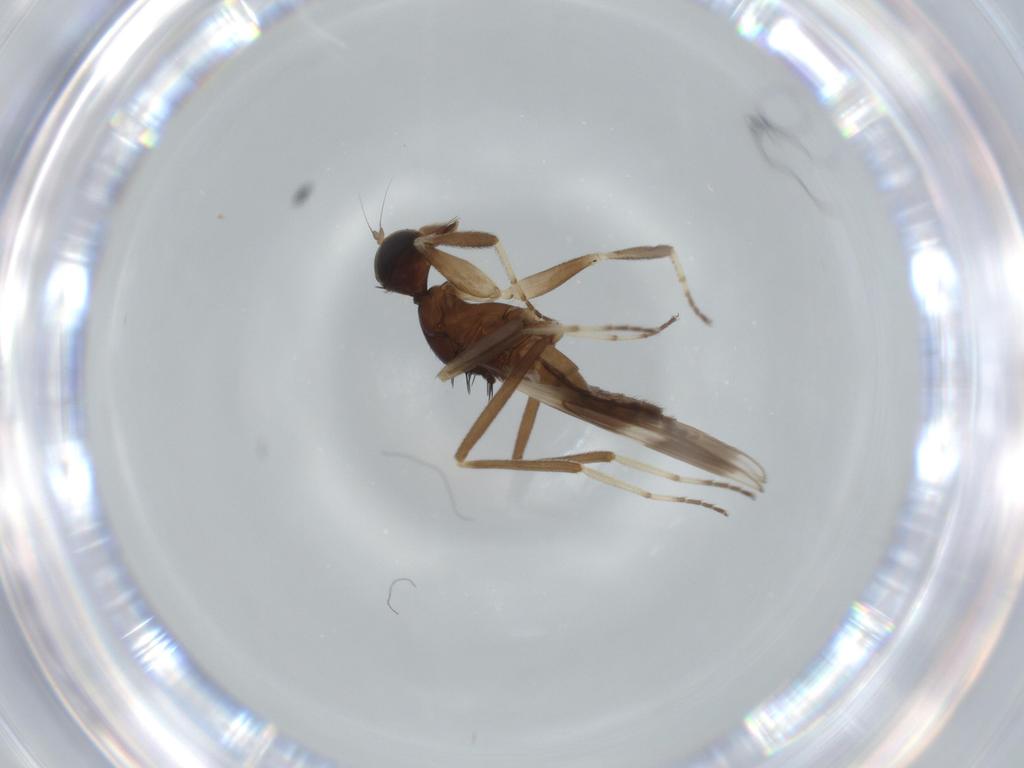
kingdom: Animalia
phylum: Arthropoda
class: Insecta
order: Diptera
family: Hybotidae
